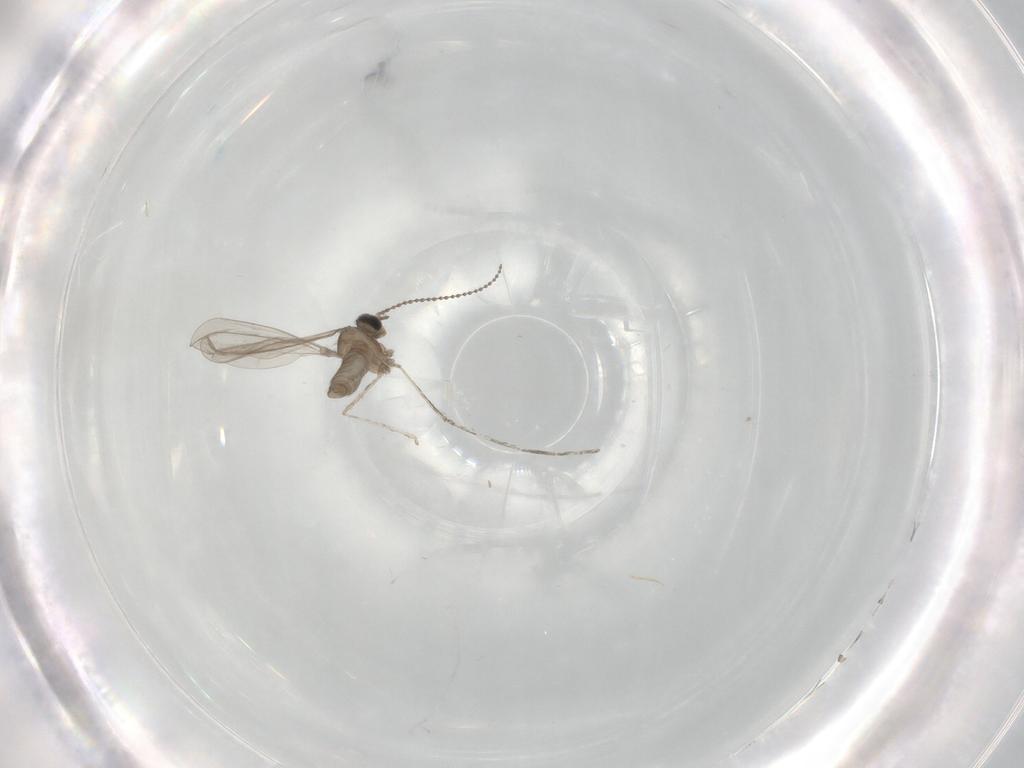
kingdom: Animalia
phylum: Arthropoda
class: Insecta
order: Diptera
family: Cecidomyiidae
